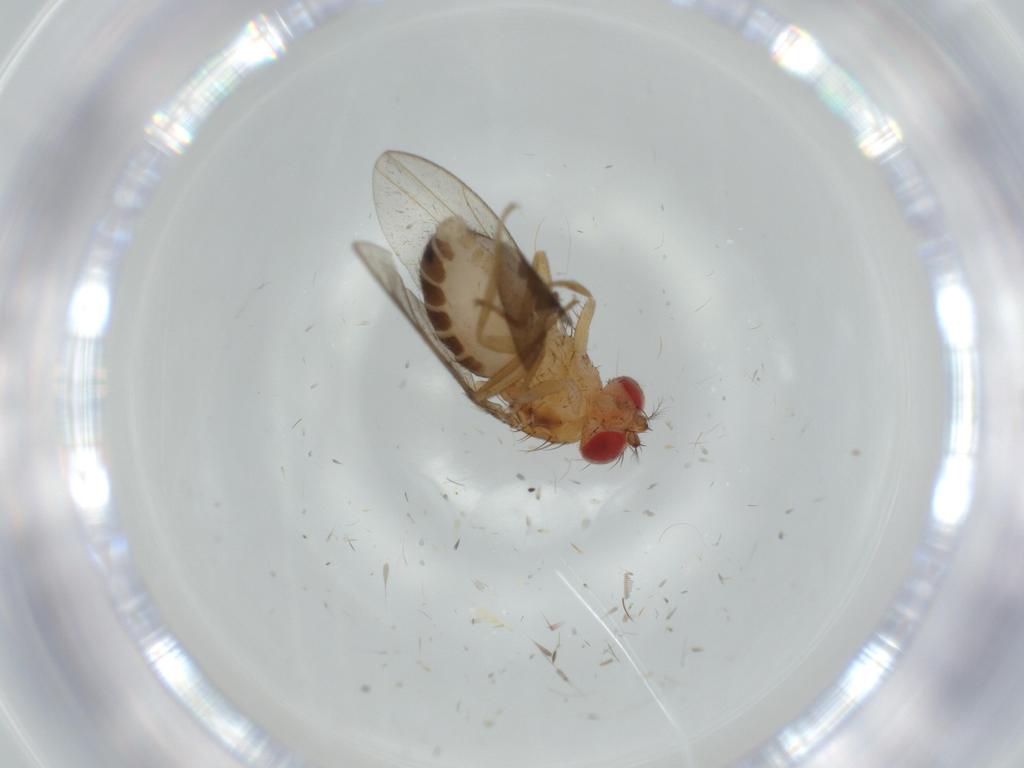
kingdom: Animalia
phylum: Arthropoda
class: Insecta
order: Diptera
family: Drosophilidae
